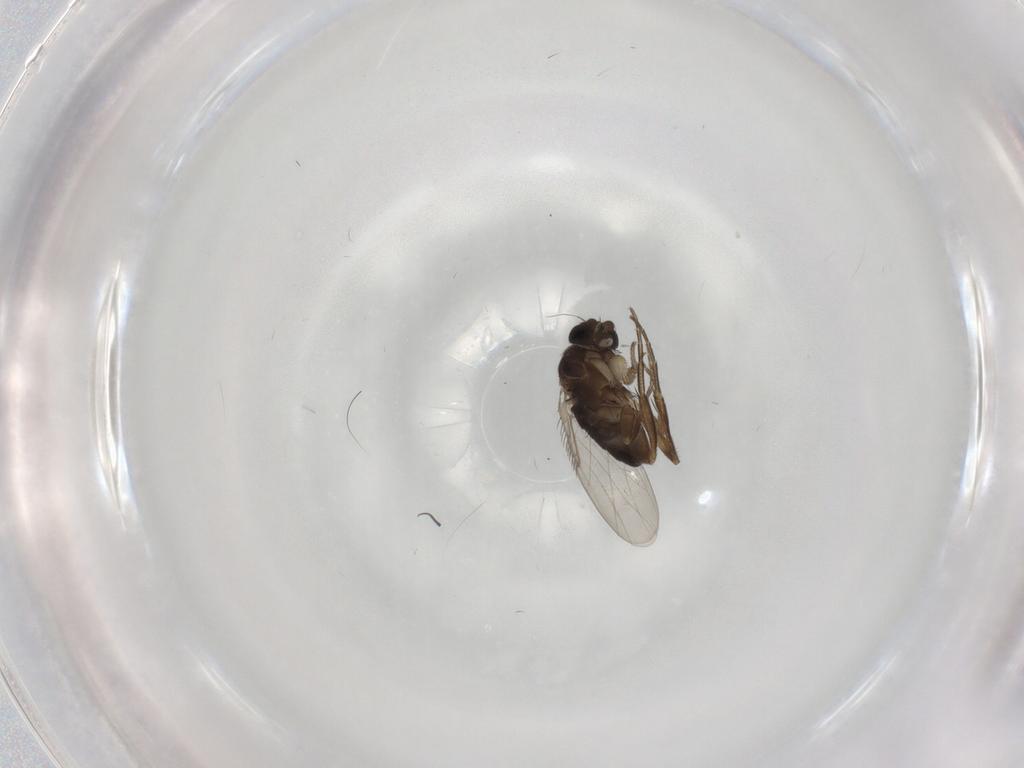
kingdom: Animalia
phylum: Arthropoda
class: Insecta
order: Diptera
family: Phoridae
